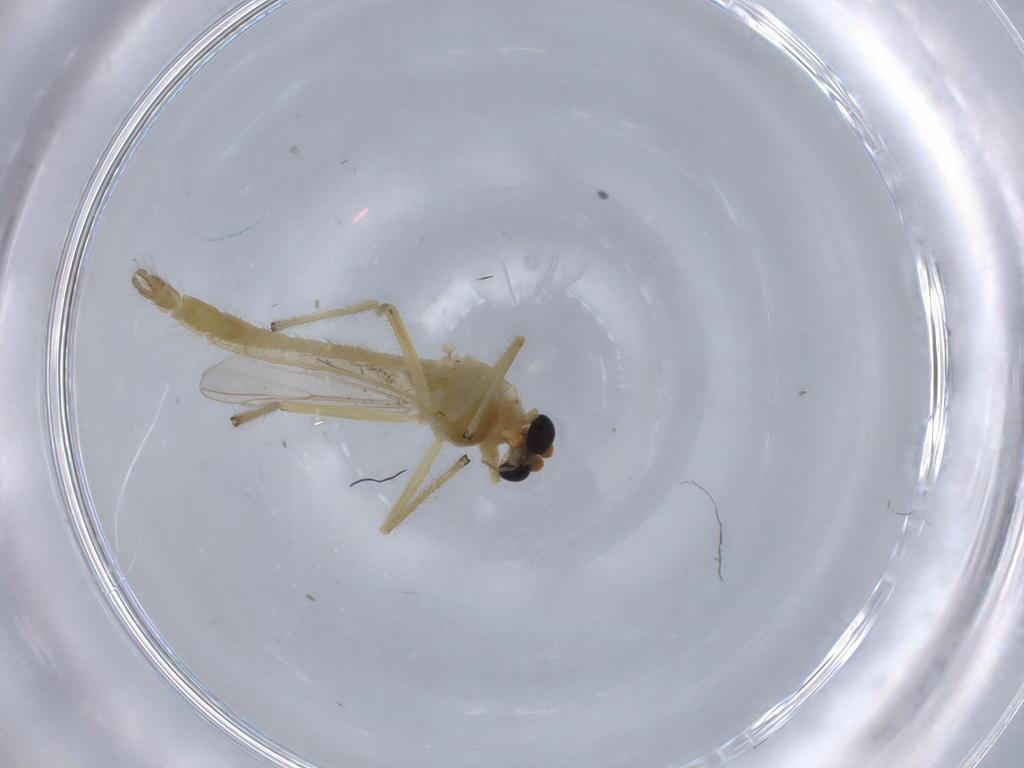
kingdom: Animalia
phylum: Arthropoda
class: Insecta
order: Diptera
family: Chironomidae
